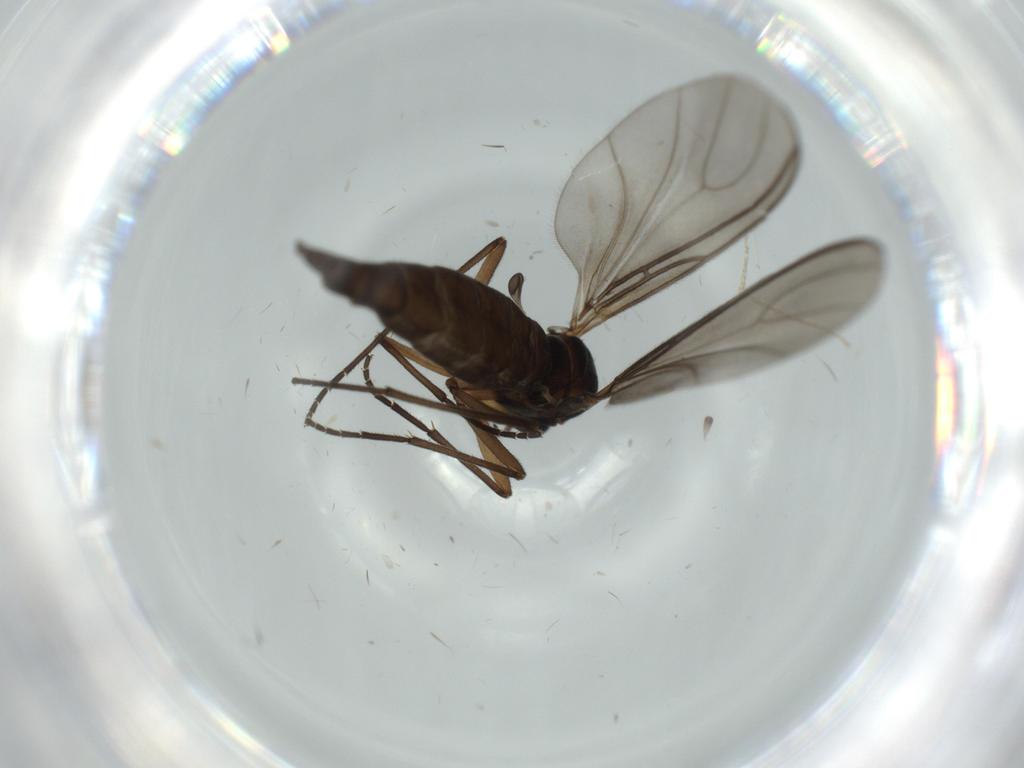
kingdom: Animalia
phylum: Arthropoda
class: Insecta
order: Diptera
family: Sciaridae
